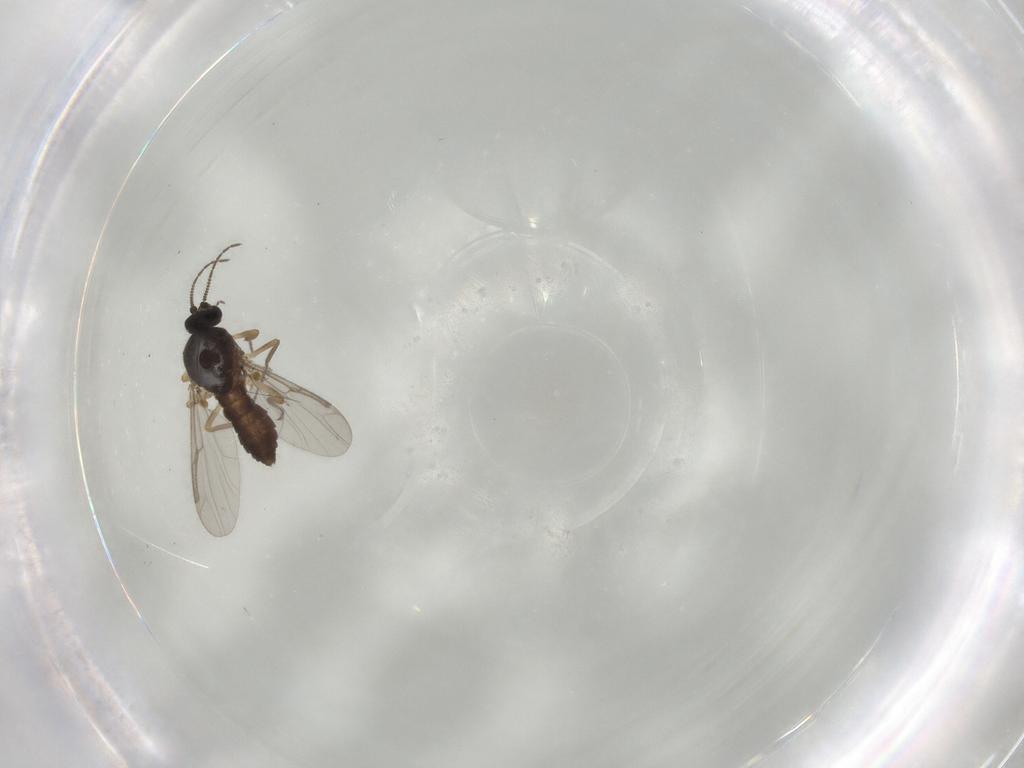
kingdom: Animalia
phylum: Arthropoda
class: Insecta
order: Diptera
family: Ceratopogonidae
